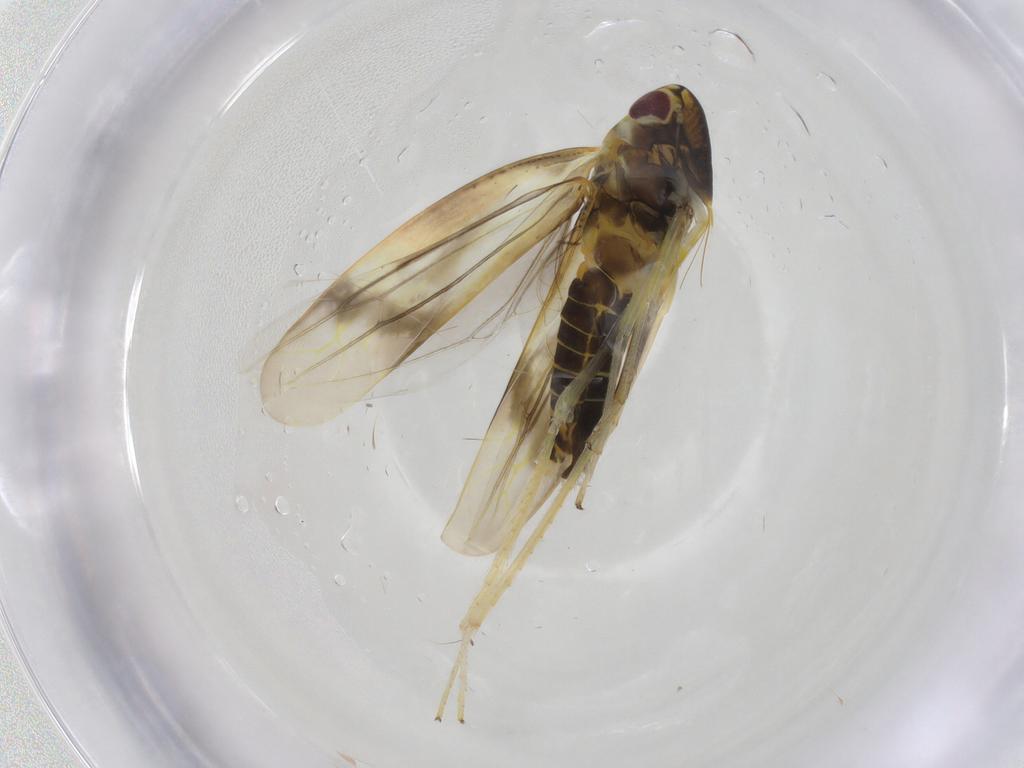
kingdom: Animalia
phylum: Arthropoda
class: Insecta
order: Hemiptera
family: Cicadellidae
